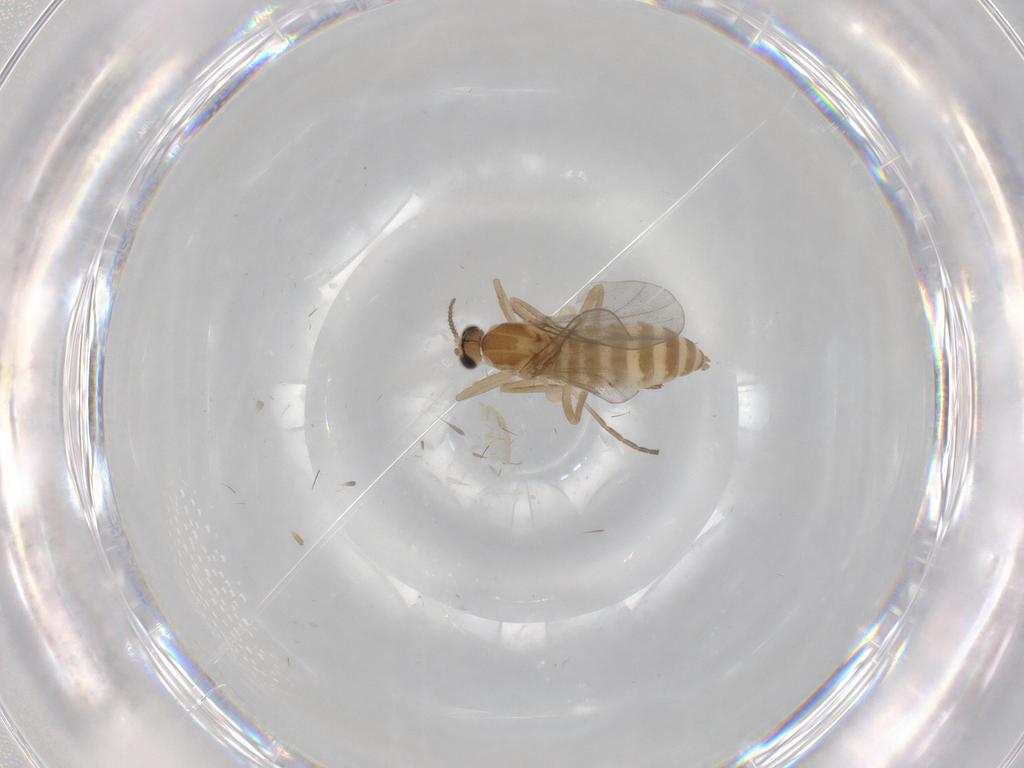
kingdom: Animalia
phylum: Arthropoda
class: Insecta
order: Diptera
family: Cecidomyiidae
